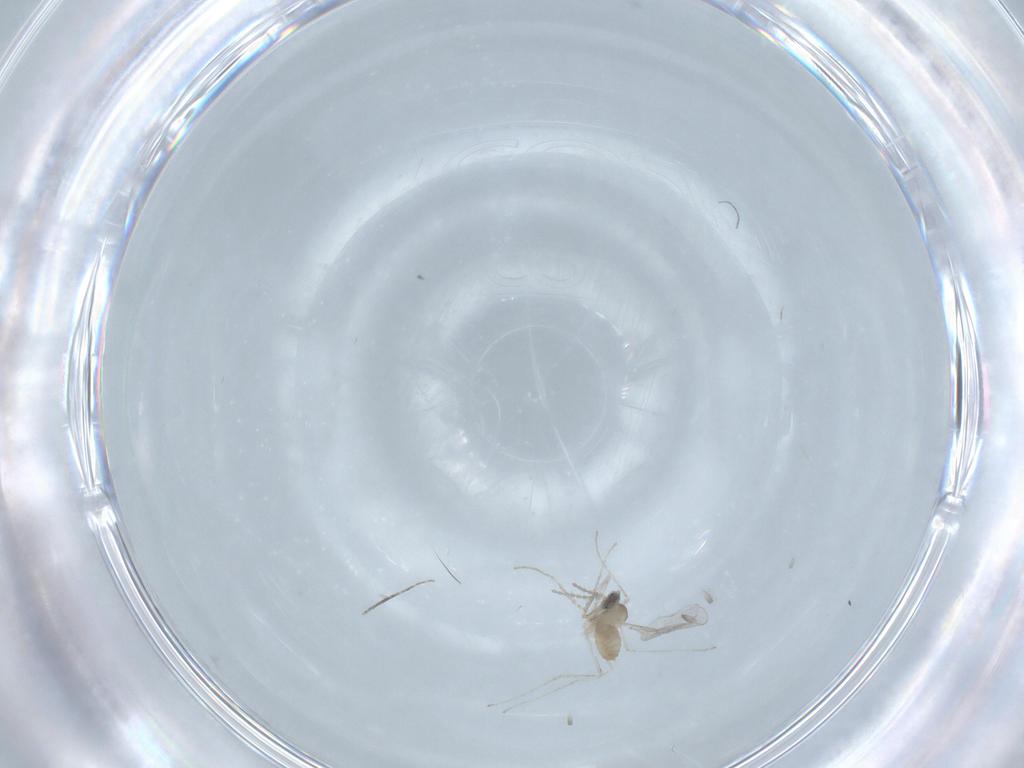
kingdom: Animalia
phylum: Arthropoda
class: Insecta
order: Diptera
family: Cecidomyiidae
